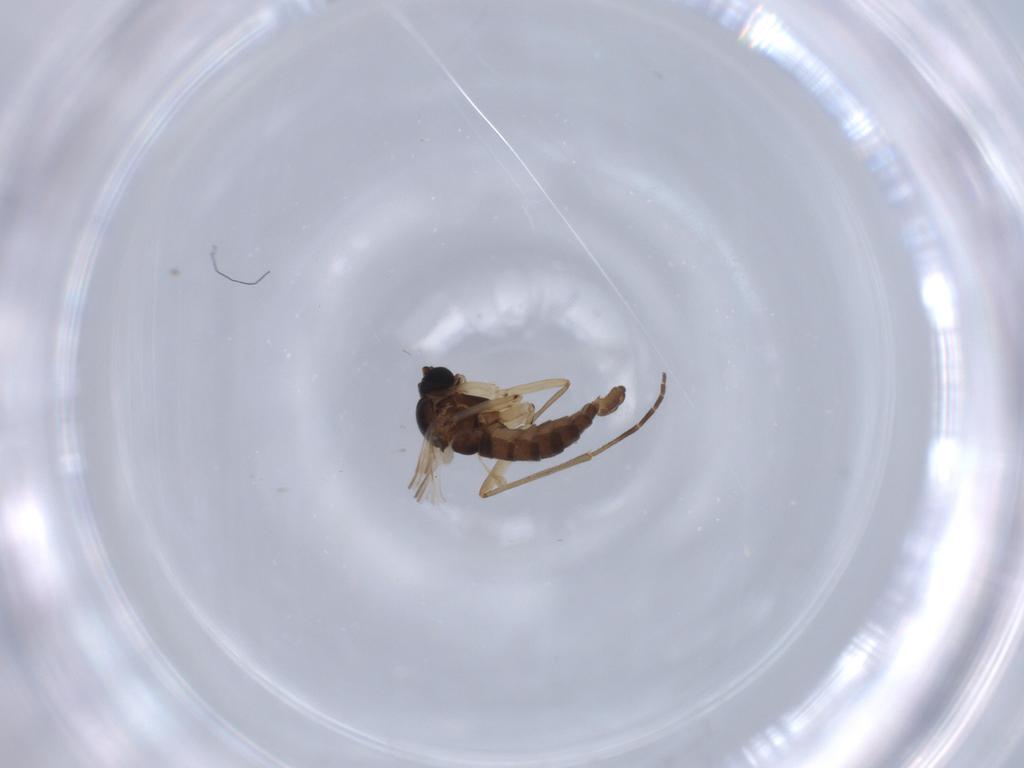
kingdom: Animalia
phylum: Arthropoda
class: Insecta
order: Diptera
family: Sciaridae
